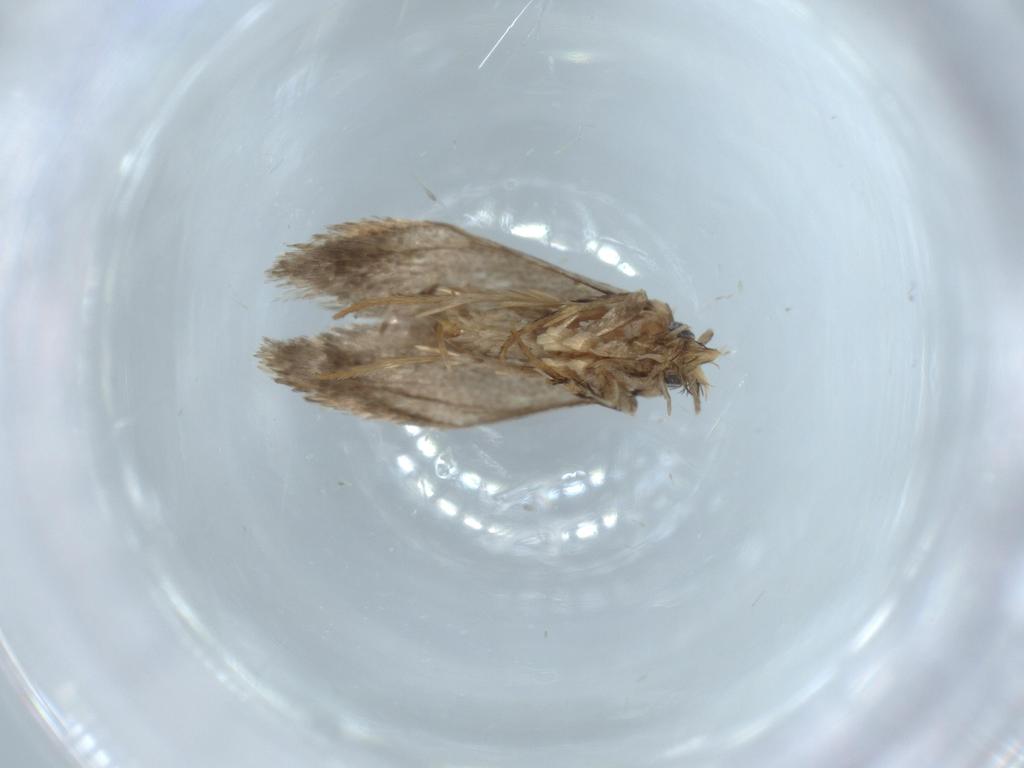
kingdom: Animalia
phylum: Arthropoda
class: Insecta
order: Lepidoptera
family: Tineidae
